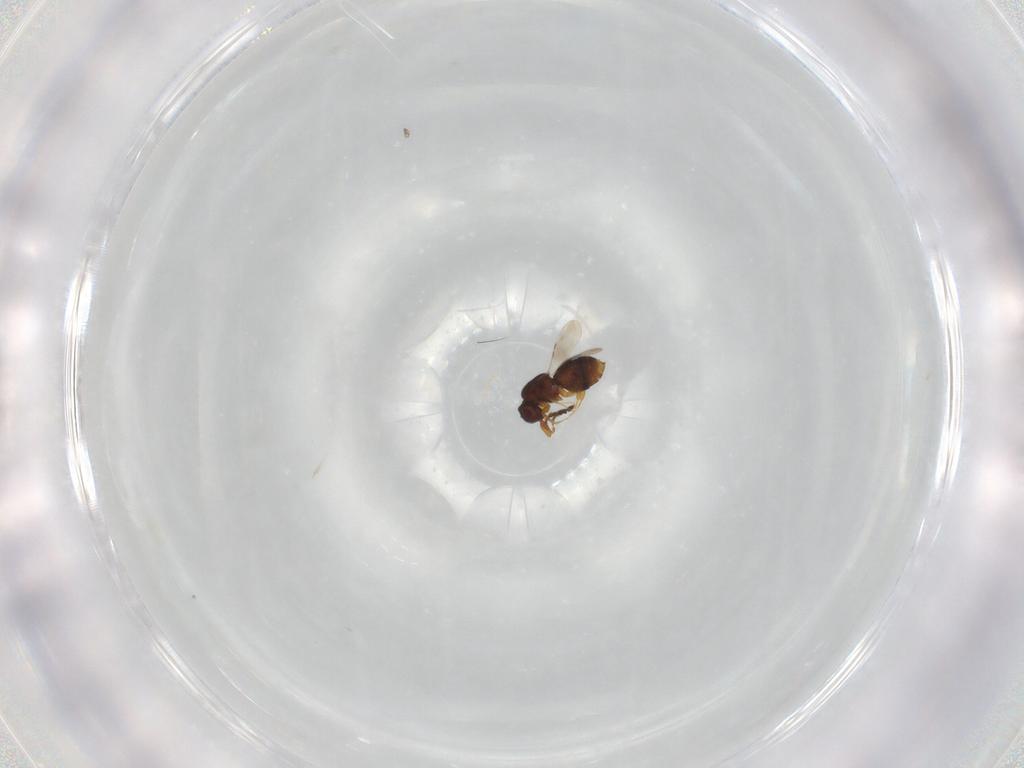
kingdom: Animalia
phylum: Arthropoda
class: Insecta
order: Hymenoptera
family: Ceraphronidae
